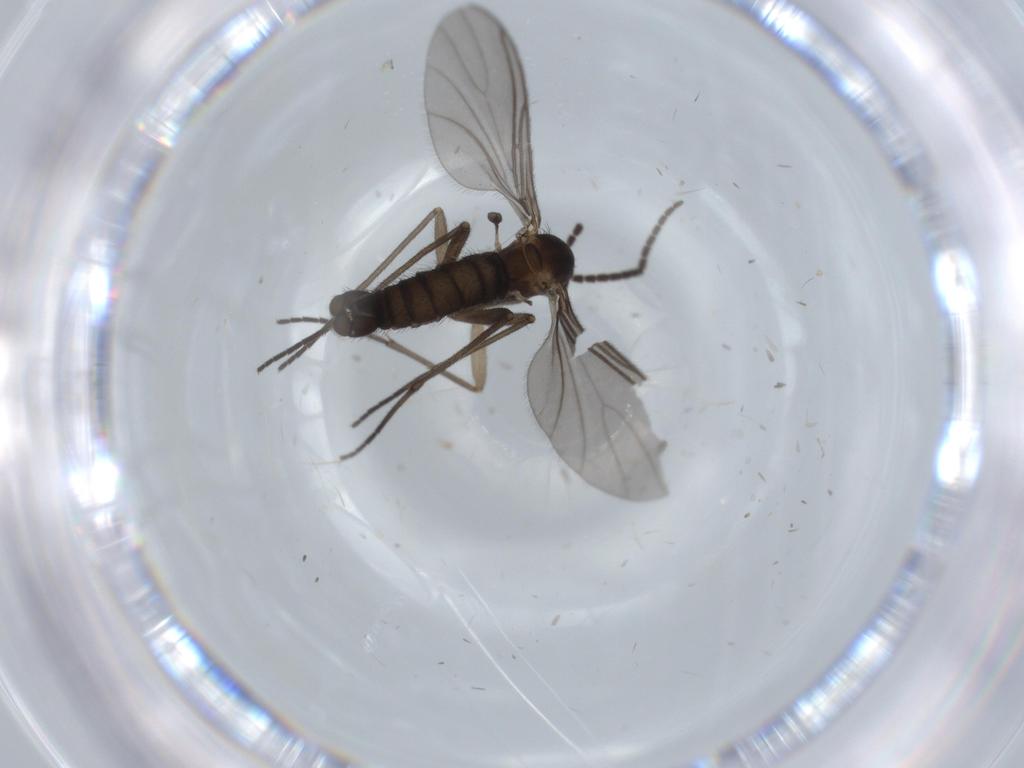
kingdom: Animalia
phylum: Arthropoda
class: Insecta
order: Diptera
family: Sciaridae
